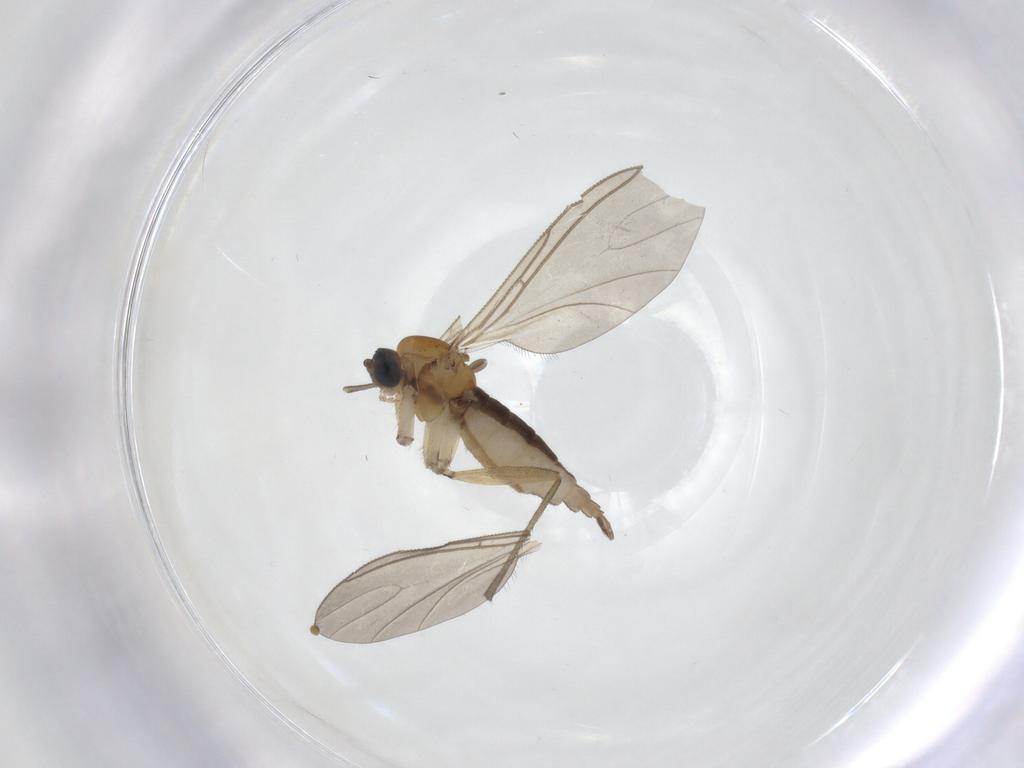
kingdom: Animalia
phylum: Arthropoda
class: Insecta
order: Diptera
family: Sciaridae
